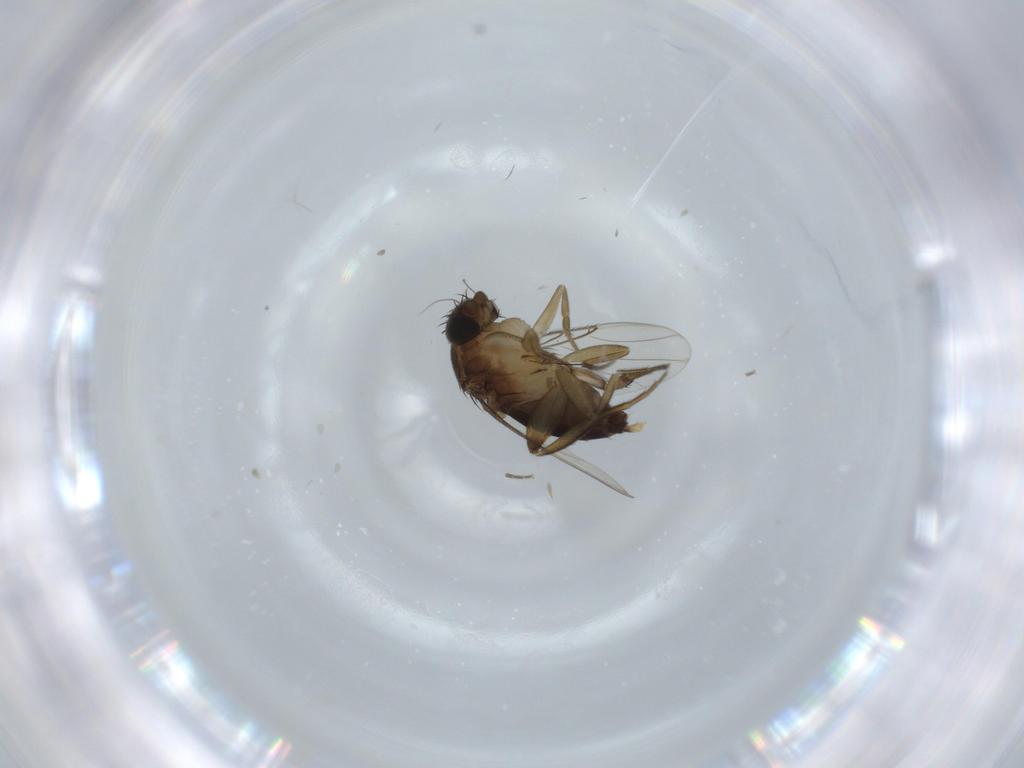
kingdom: Animalia
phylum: Arthropoda
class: Insecta
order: Diptera
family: Phoridae
